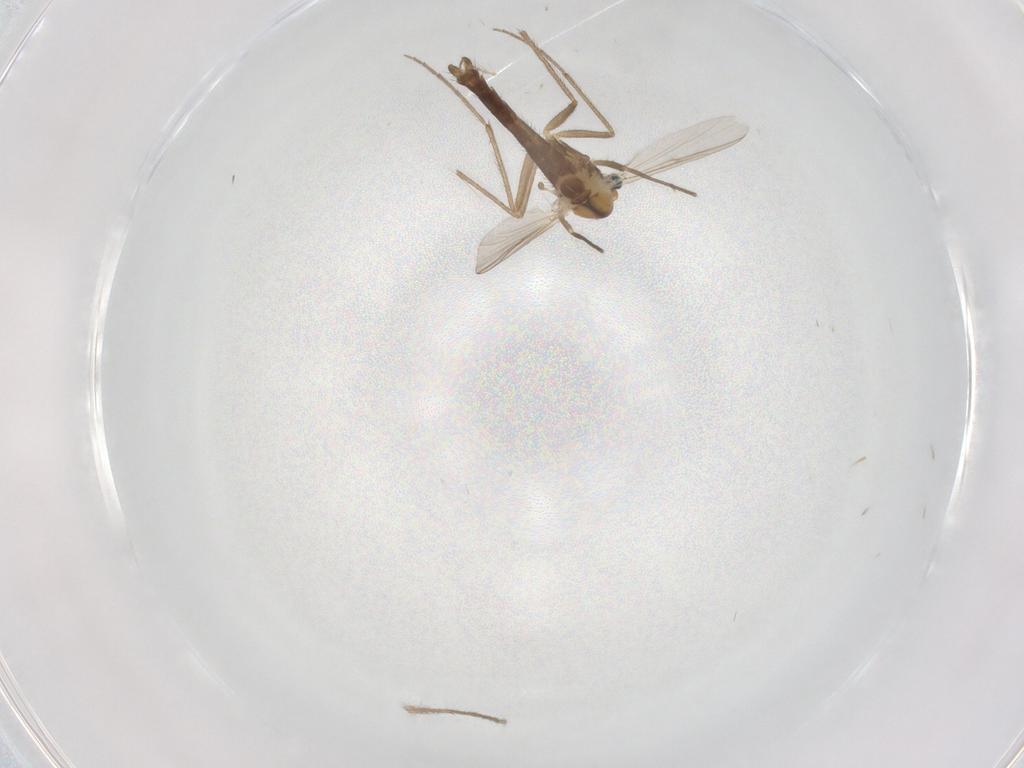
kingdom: Animalia
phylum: Arthropoda
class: Insecta
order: Diptera
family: Chironomidae
